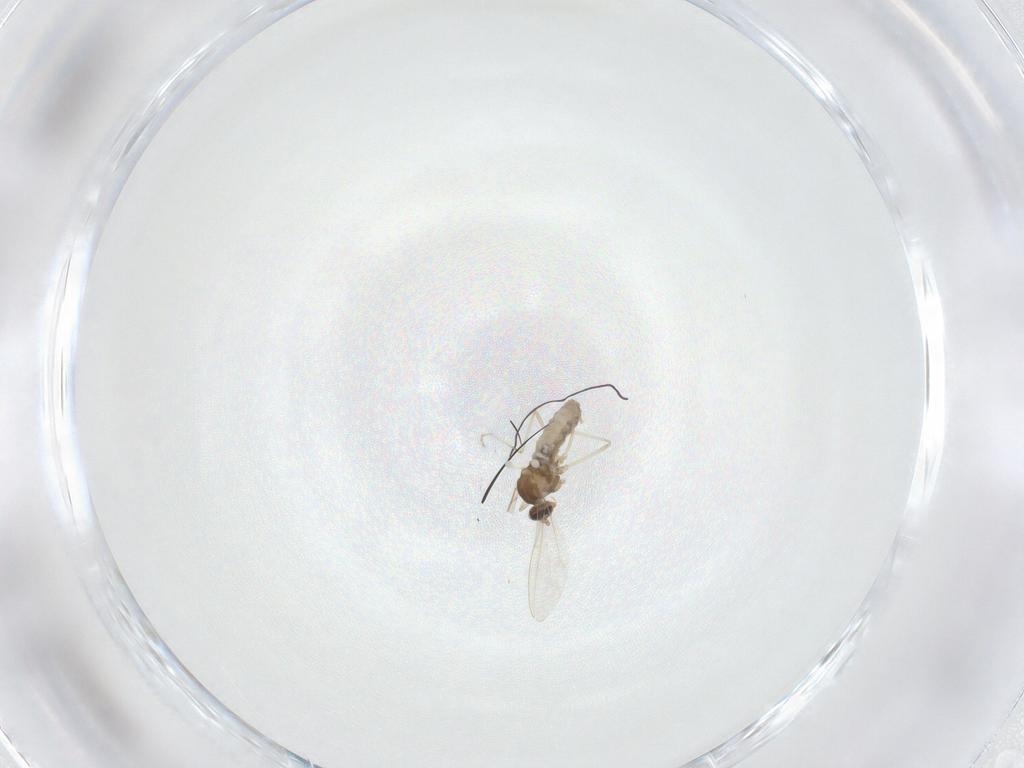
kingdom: Animalia
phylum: Arthropoda
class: Insecta
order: Diptera
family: Cecidomyiidae
